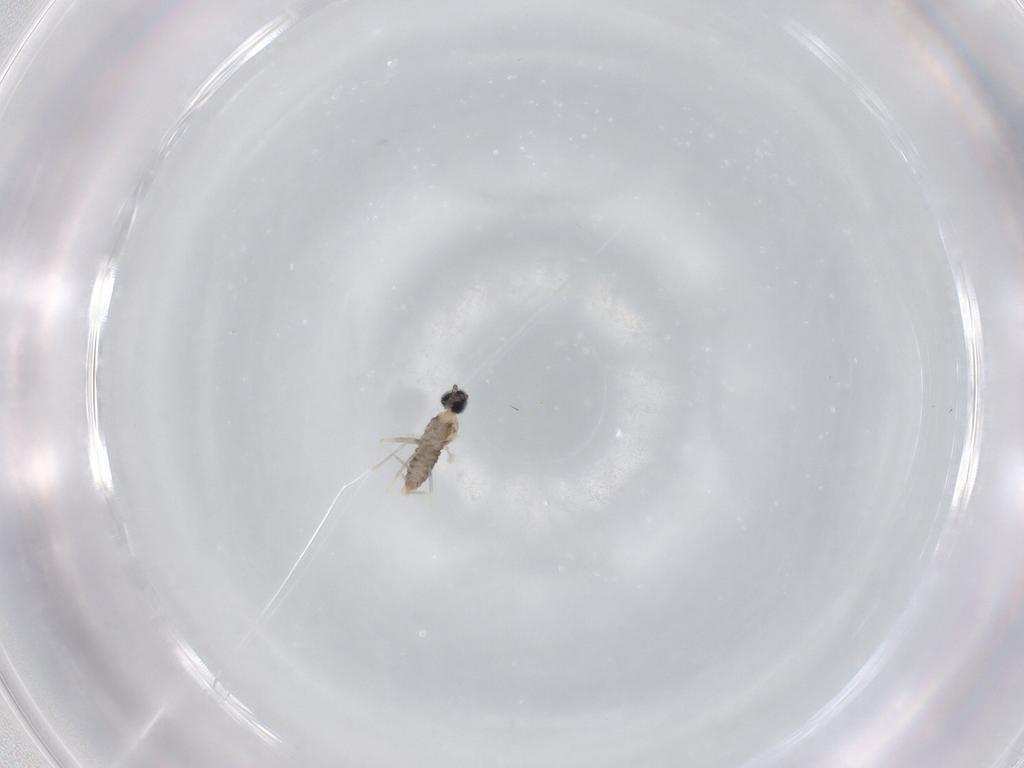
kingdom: Animalia
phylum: Arthropoda
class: Insecta
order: Diptera
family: Cecidomyiidae
